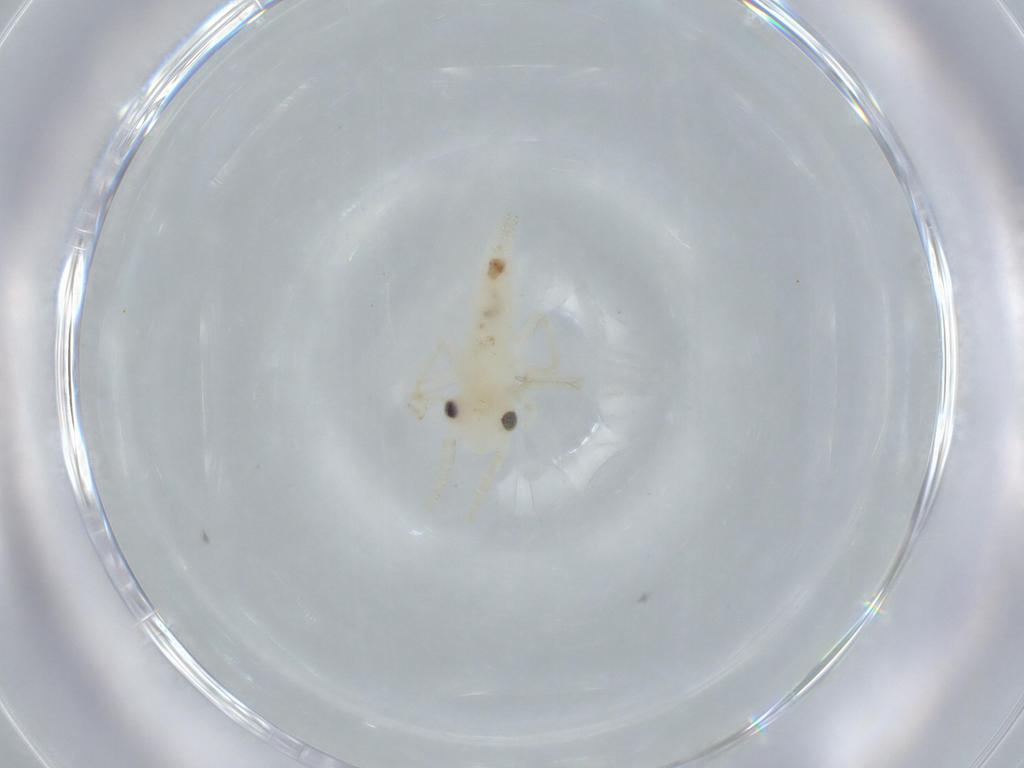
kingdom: Animalia
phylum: Arthropoda
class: Insecta
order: Orthoptera
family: Trigonidiidae
